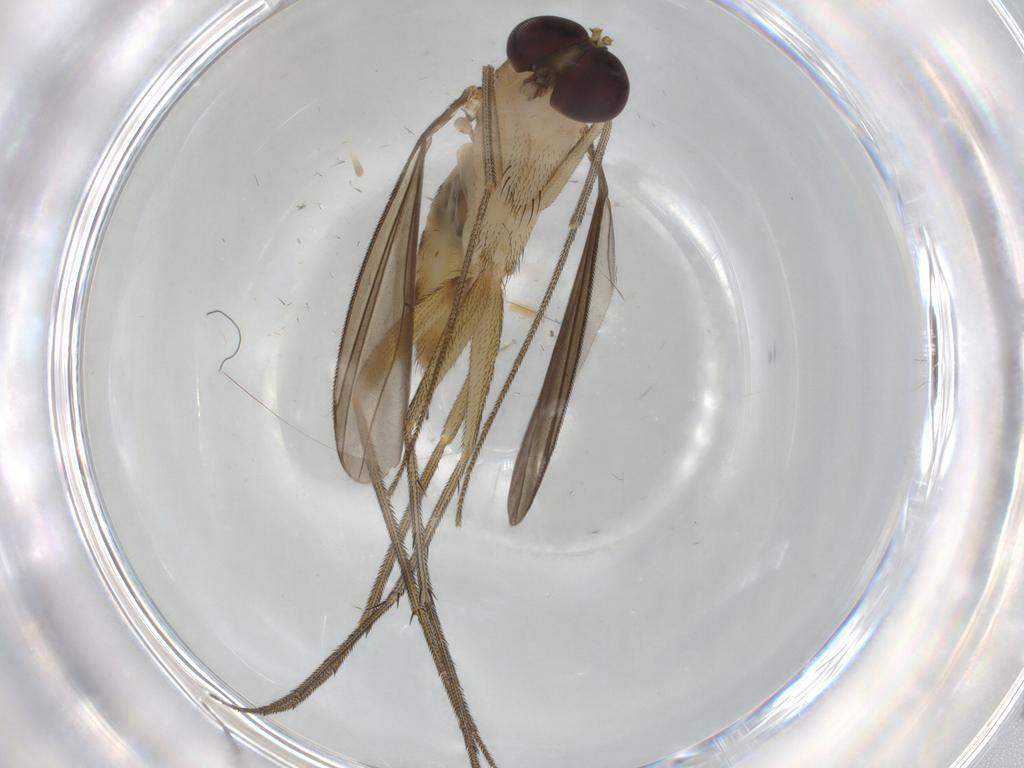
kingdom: Animalia
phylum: Arthropoda
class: Insecta
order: Diptera
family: Dolichopodidae
